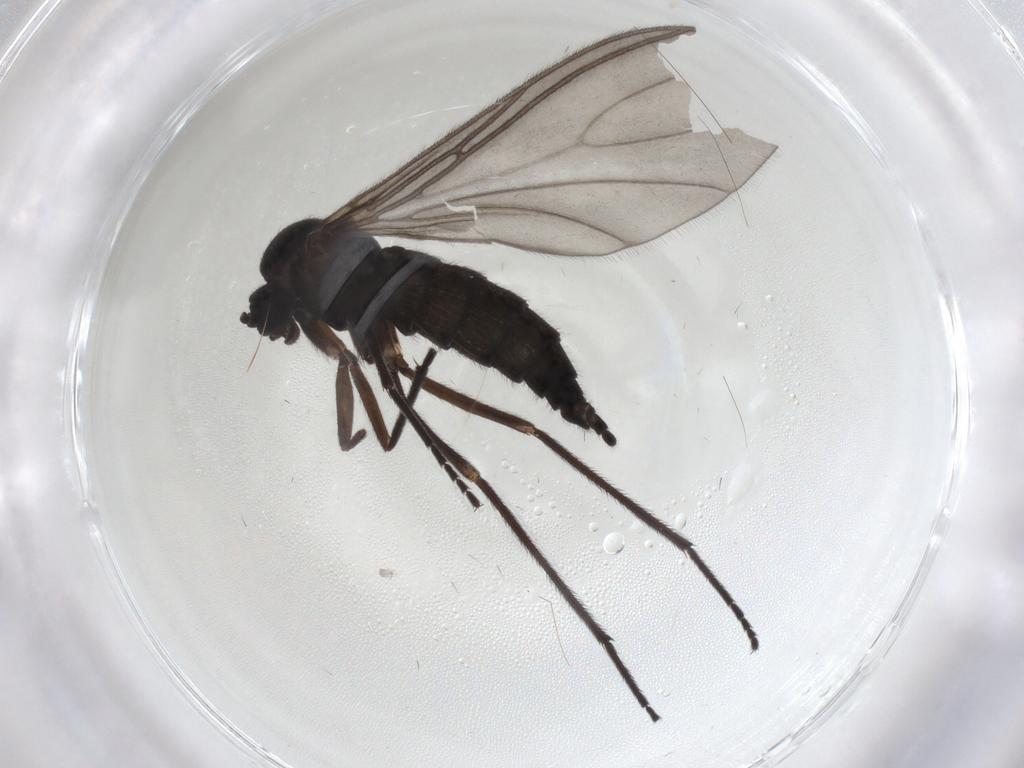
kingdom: Animalia
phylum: Arthropoda
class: Insecta
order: Diptera
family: Sciaridae
